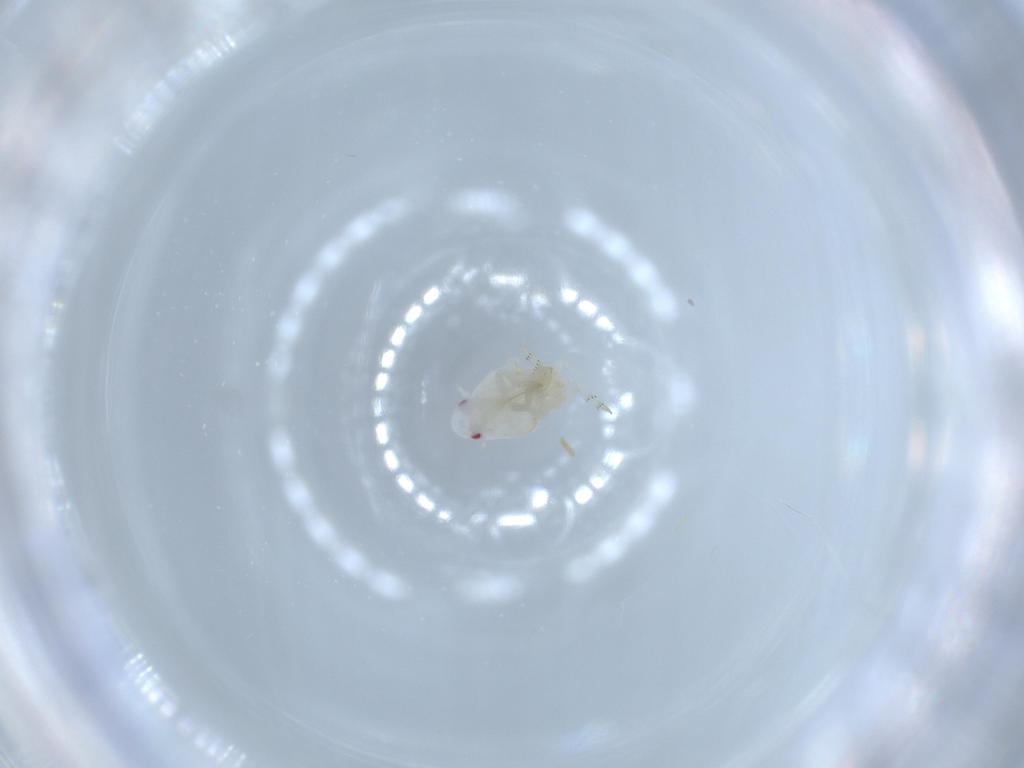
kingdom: Animalia
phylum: Arthropoda
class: Insecta
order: Hemiptera
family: Flatidae
